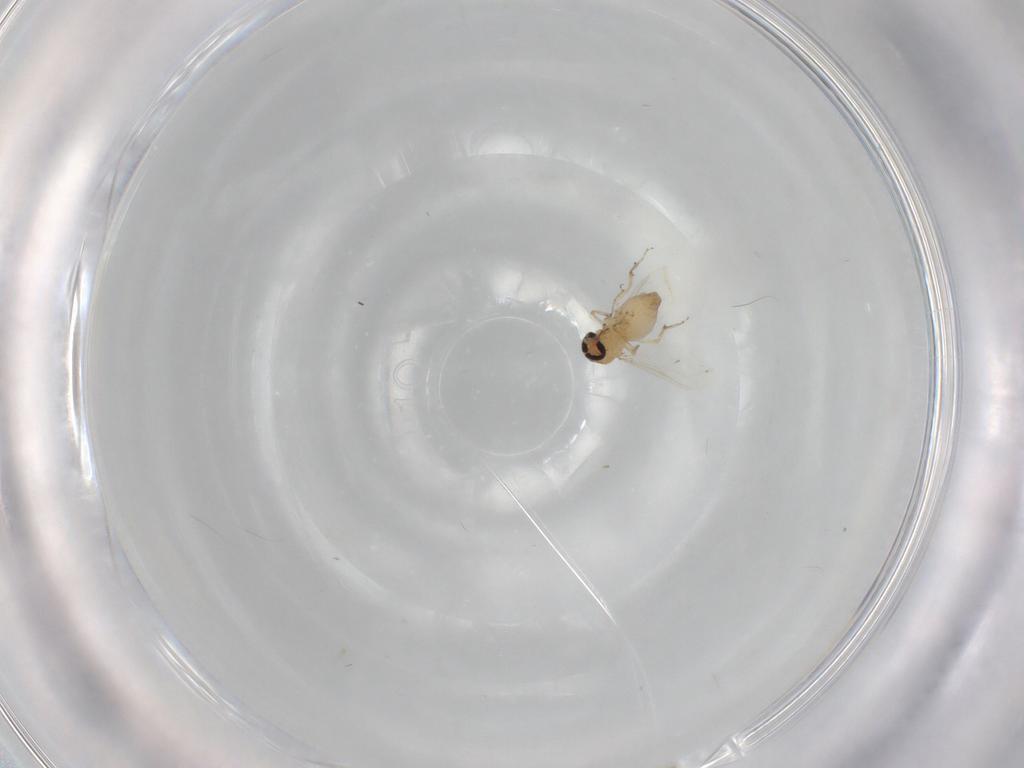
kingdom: Animalia
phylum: Arthropoda
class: Insecta
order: Diptera
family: Ceratopogonidae
